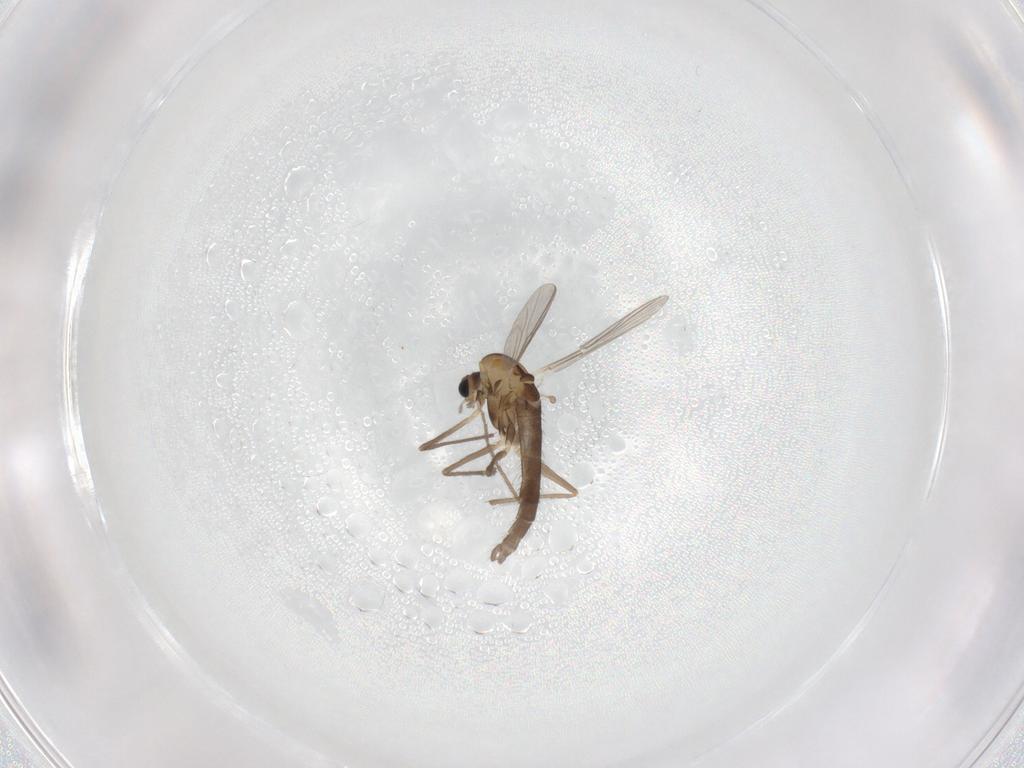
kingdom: Animalia
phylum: Arthropoda
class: Insecta
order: Diptera
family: Chironomidae
